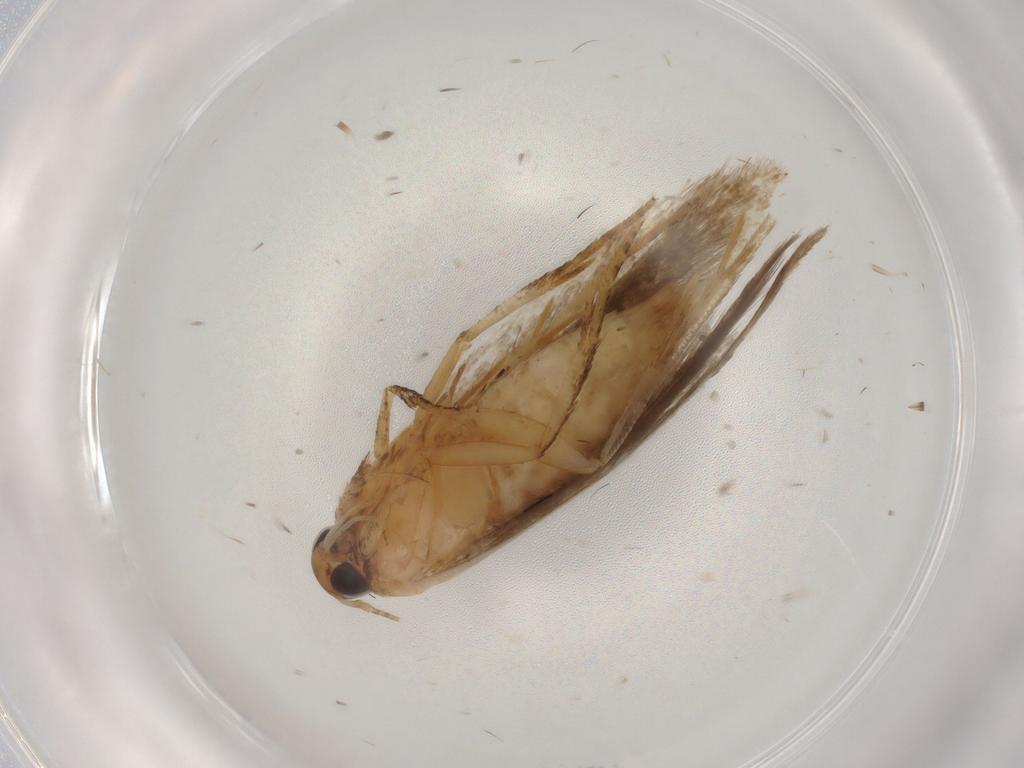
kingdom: Animalia
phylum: Arthropoda
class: Insecta
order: Lepidoptera
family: Gelechiidae
